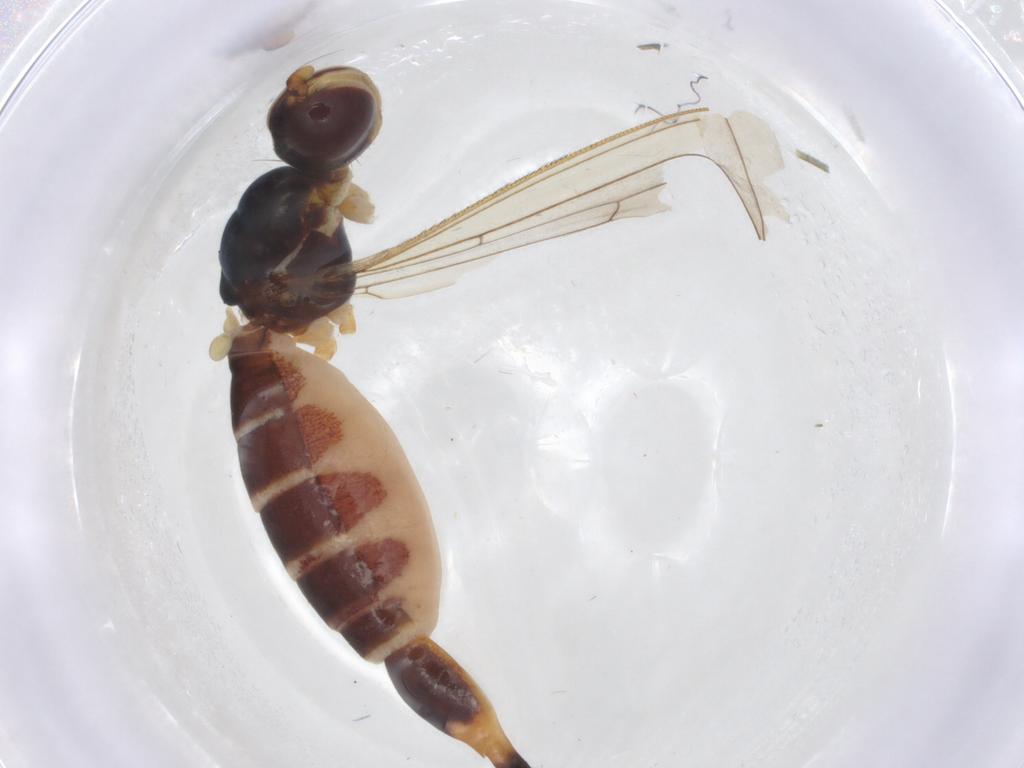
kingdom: Animalia
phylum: Arthropoda
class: Insecta
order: Diptera
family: Micropezidae
